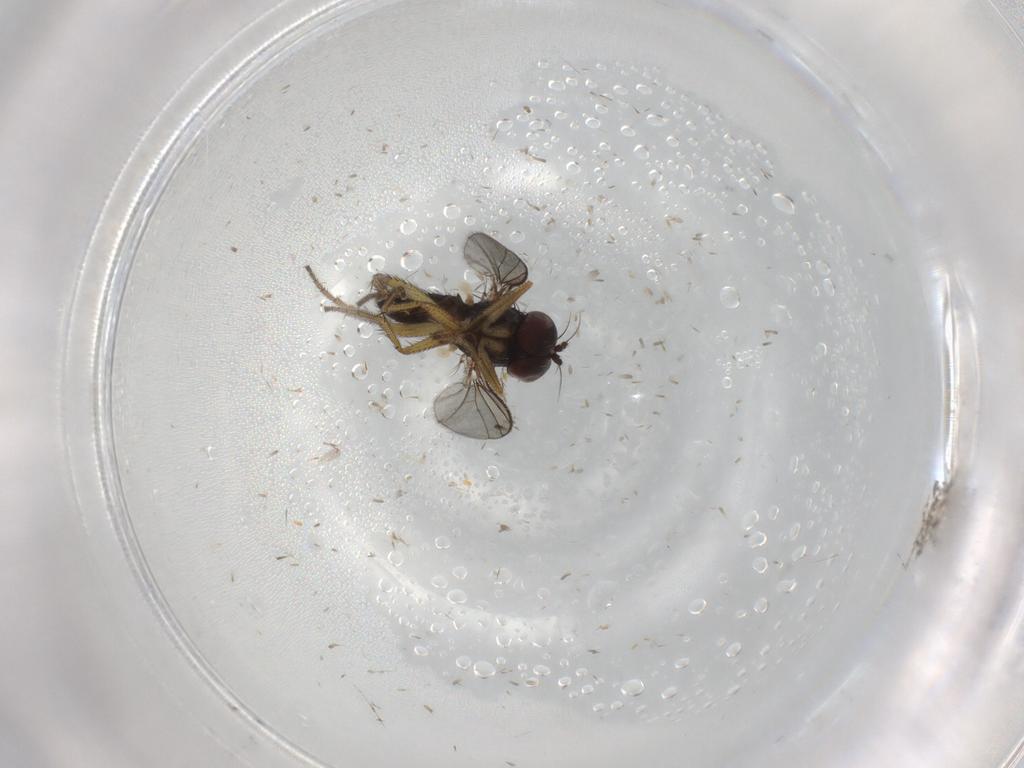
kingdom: Animalia
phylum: Arthropoda
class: Insecta
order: Diptera
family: Dolichopodidae
